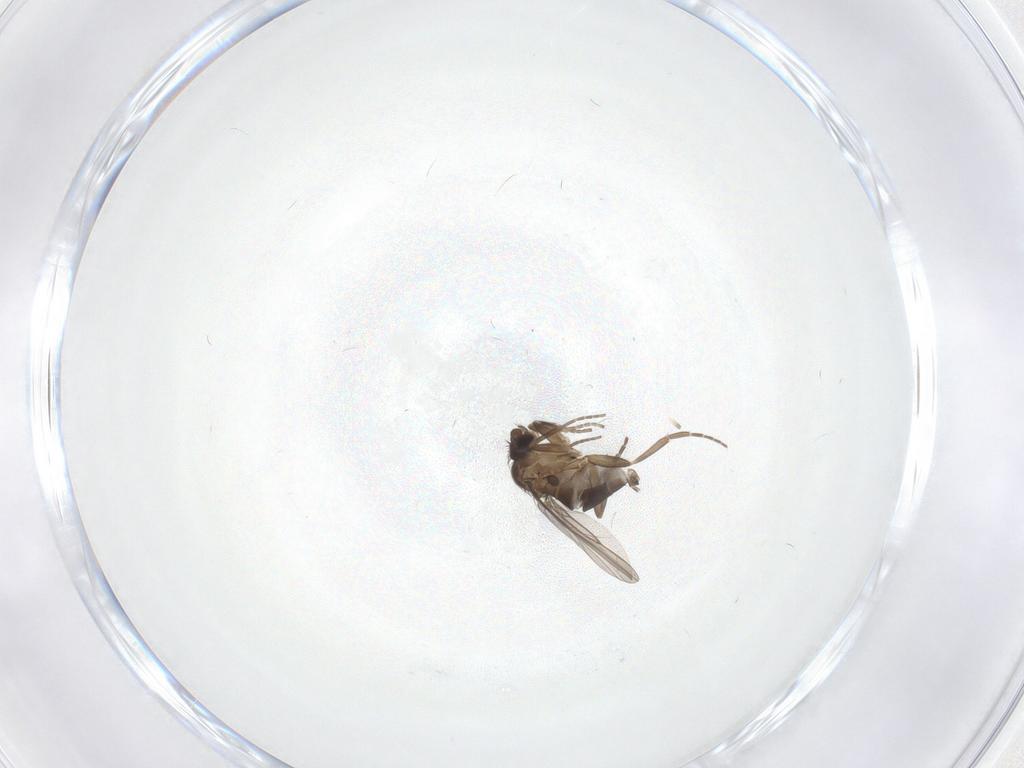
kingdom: Animalia
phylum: Arthropoda
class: Insecta
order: Diptera
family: Phoridae
